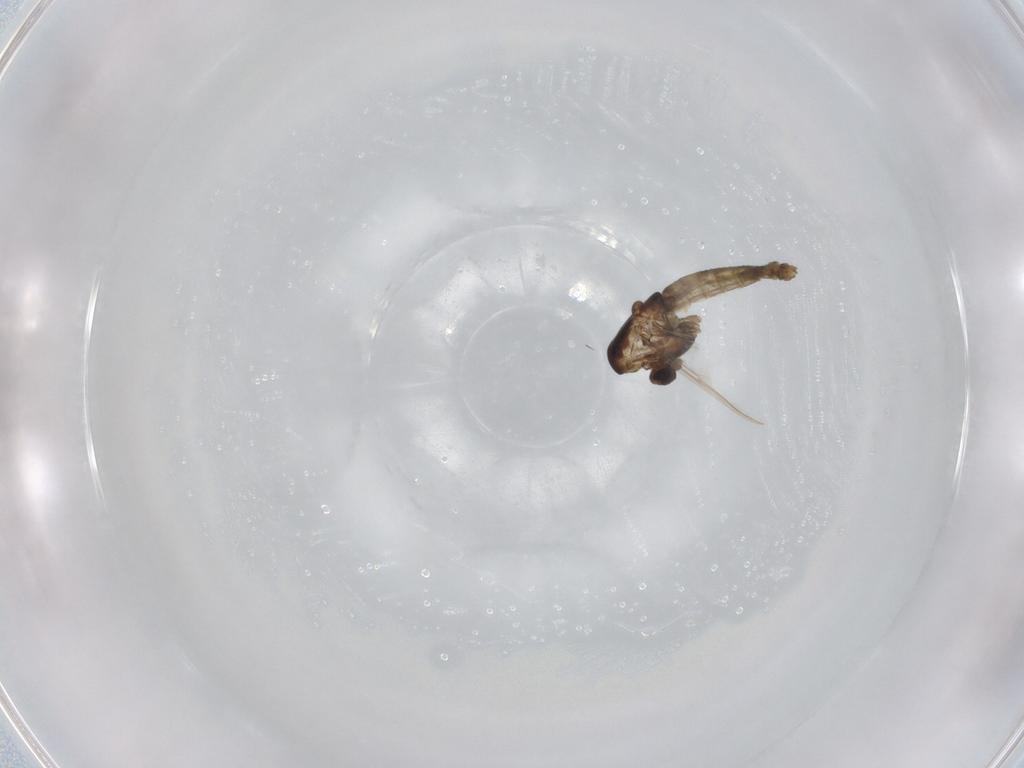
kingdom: Animalia
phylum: Arthropoda
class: Insecta
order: Diptera
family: Chironomidae
